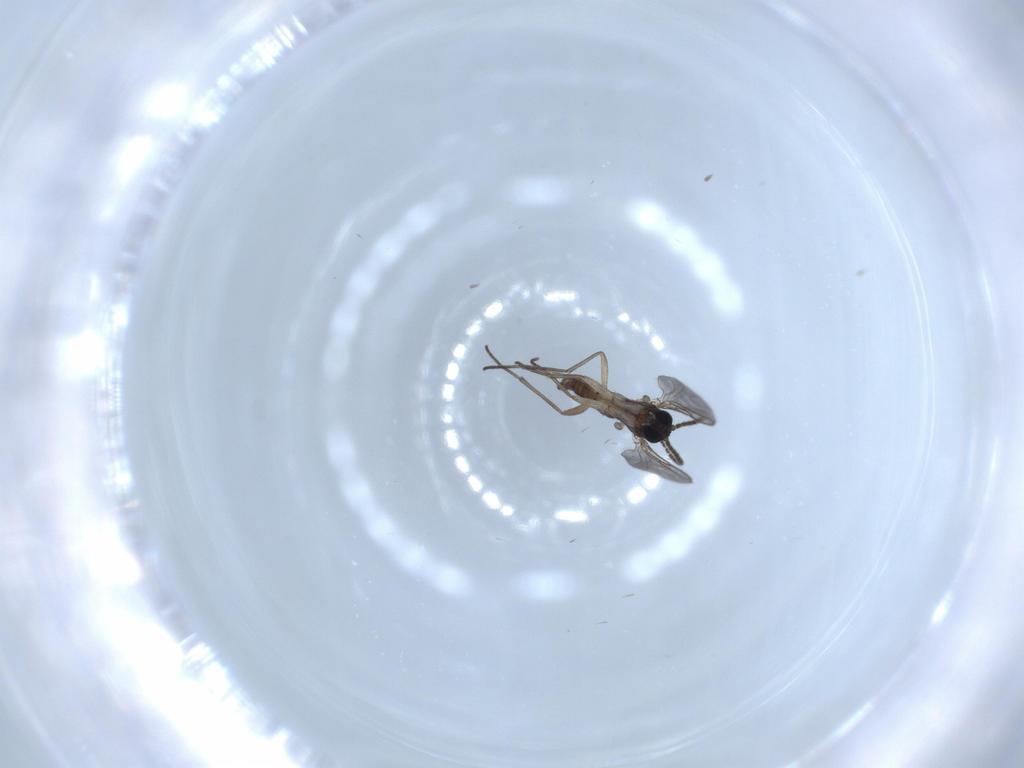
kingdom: Animalia
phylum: Arthropoda
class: Insecta
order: Diptera
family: Sciaridae
